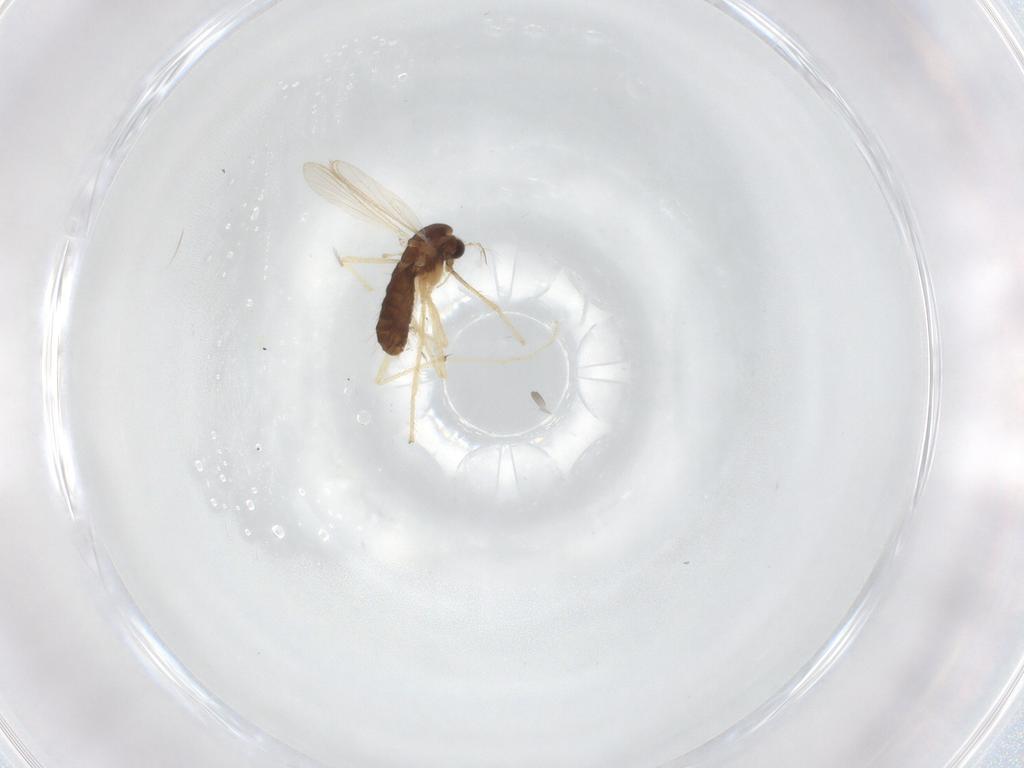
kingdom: Animalia
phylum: Arthropoda
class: Insecta
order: Diptera
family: Chironomidae
